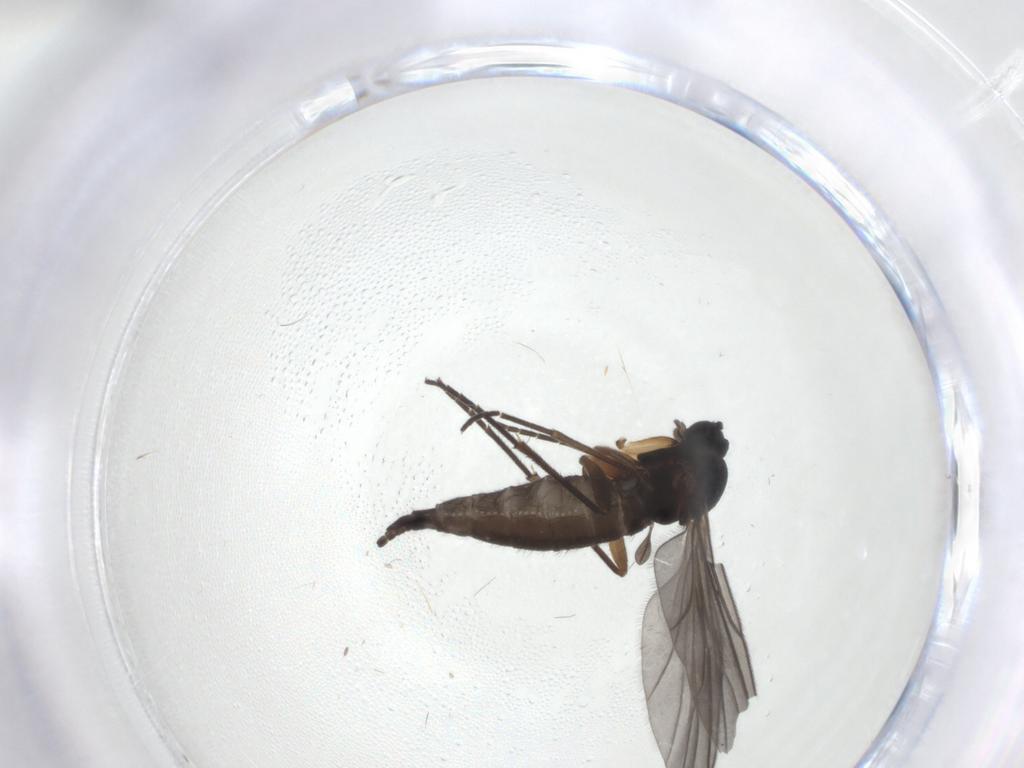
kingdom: Animalia
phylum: Arthropoda
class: Insecta
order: Diptera
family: Sciaridae
